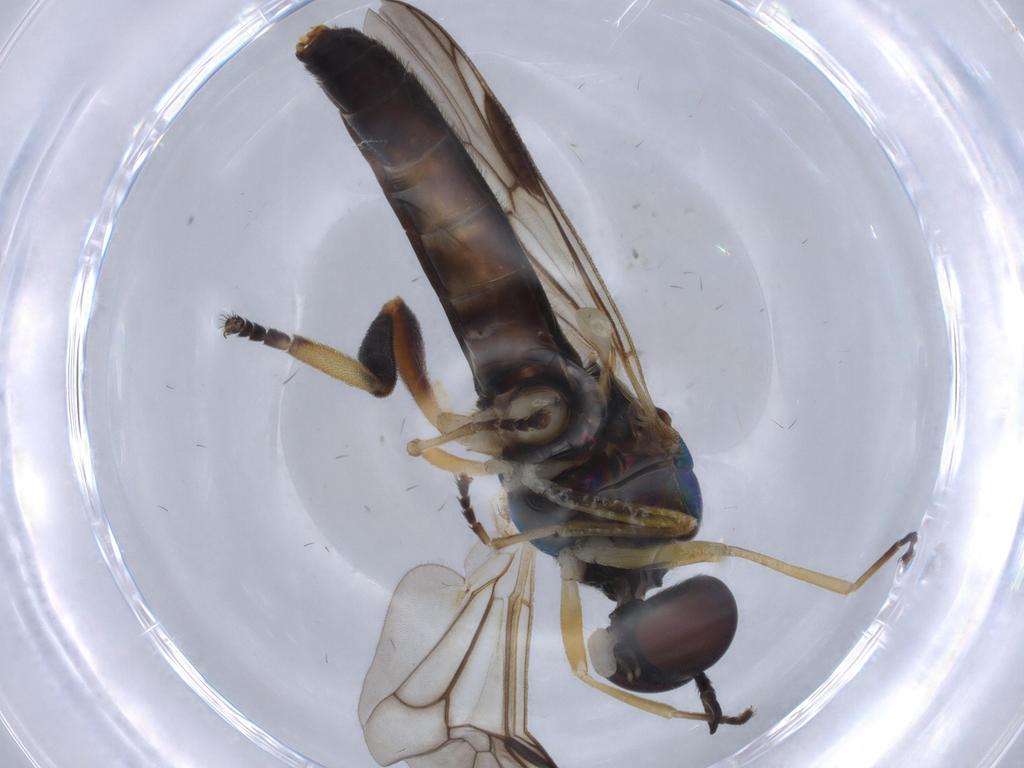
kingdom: Animalia
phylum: Arthropoda
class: Insecta
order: Diptera
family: Stratiomyidae
